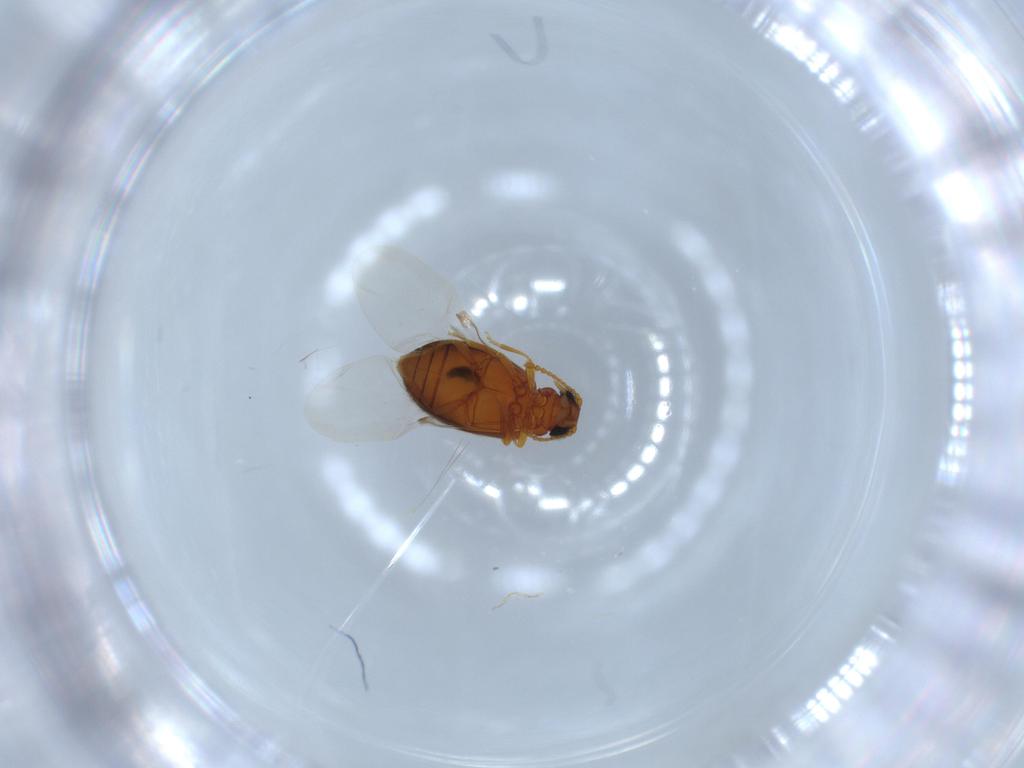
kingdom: Animalia
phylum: Arthropoda
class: Insecta
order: Coleoptera
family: Aderidae
